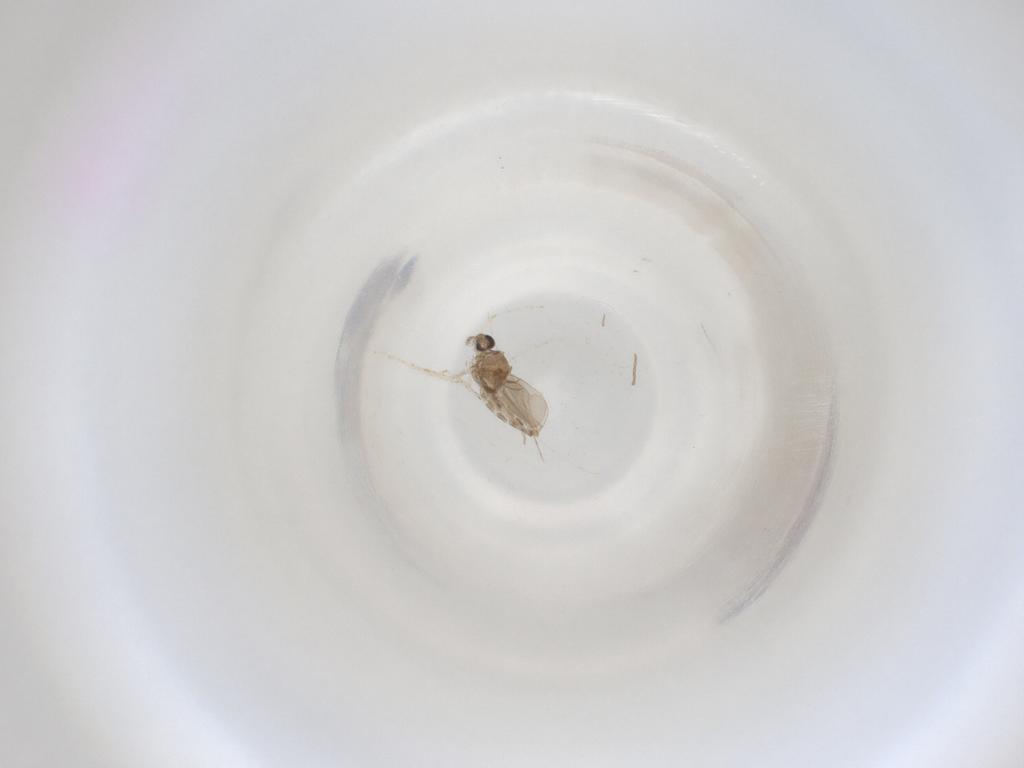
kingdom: Animalia
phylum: Arthropoda
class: Insecta
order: Diptera
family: Cecidomyiidae
